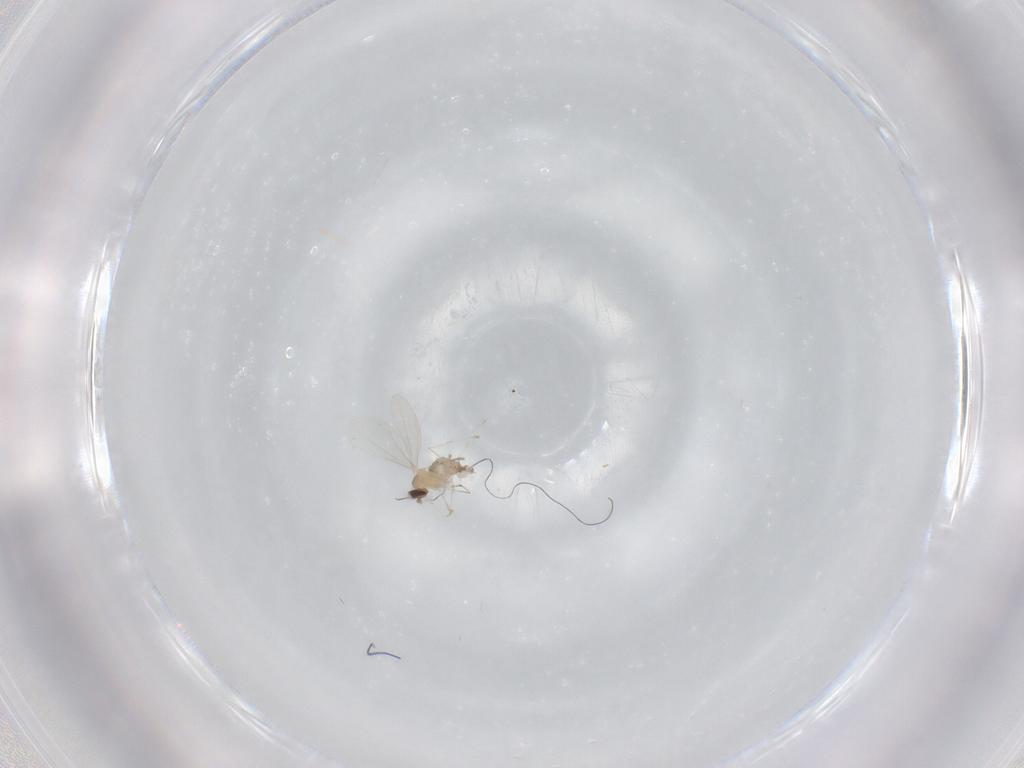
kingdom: Animalia
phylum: Arthropoda
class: Insecta
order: Diptera
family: Cecidomyiidae
